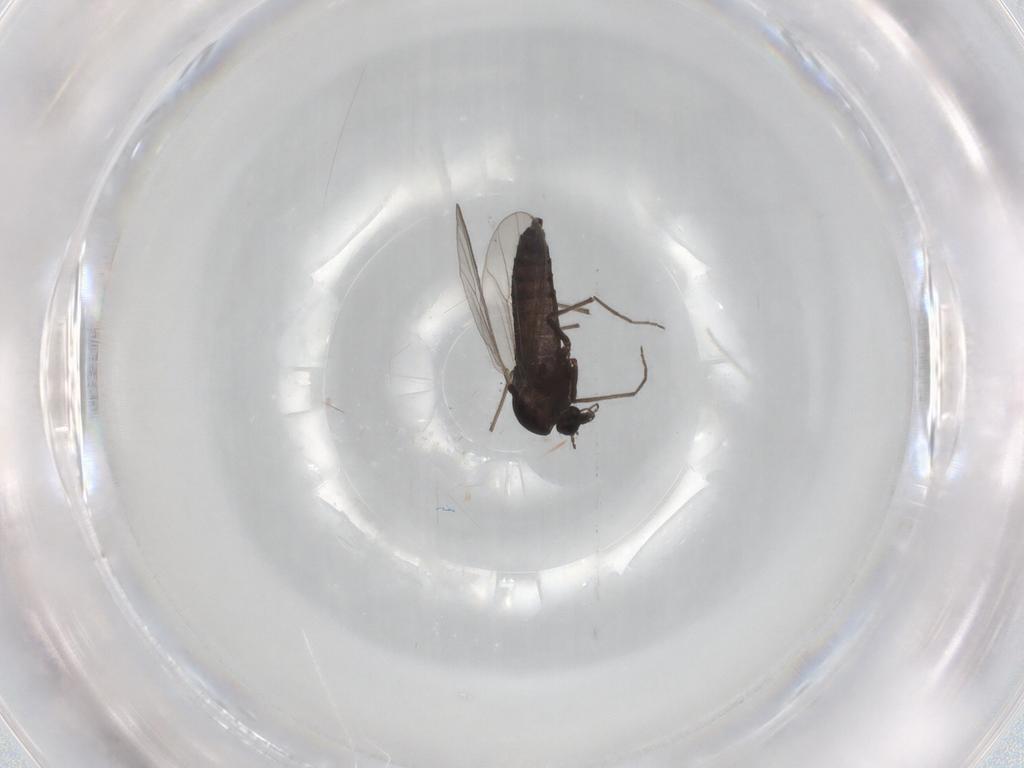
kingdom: Animalia
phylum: Arthropoda
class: Insecta
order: Diptera
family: Chironomidae
